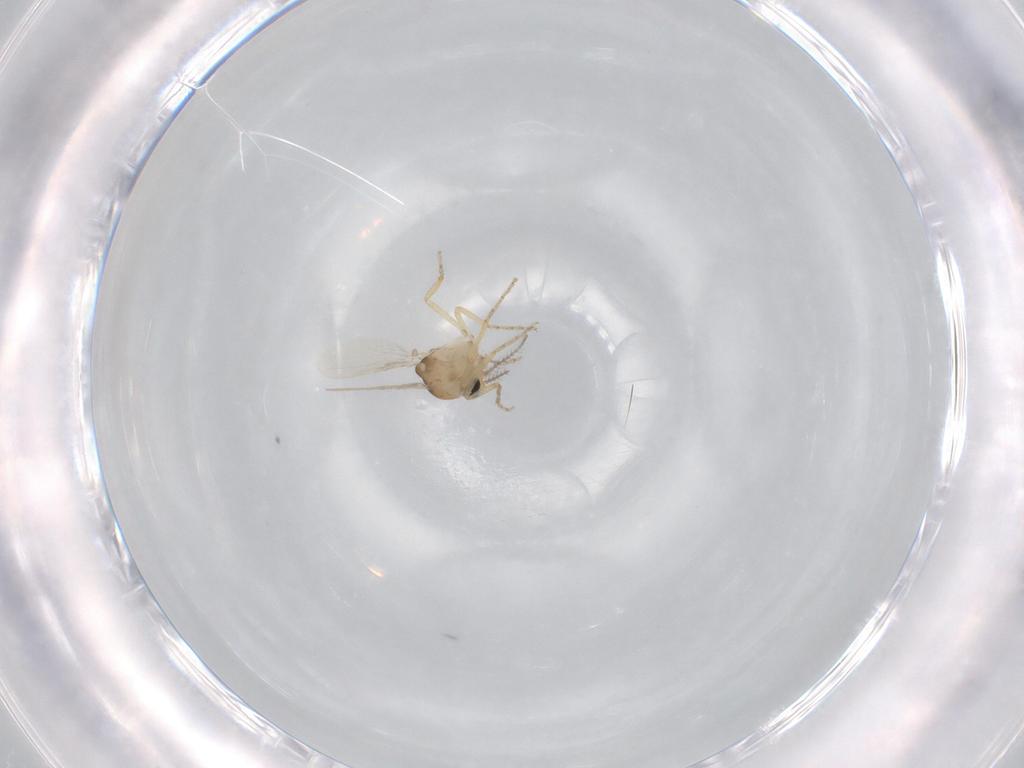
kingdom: Animalia
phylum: Arthropoda
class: Insecta
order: Diptera
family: Ceratopogonidae
